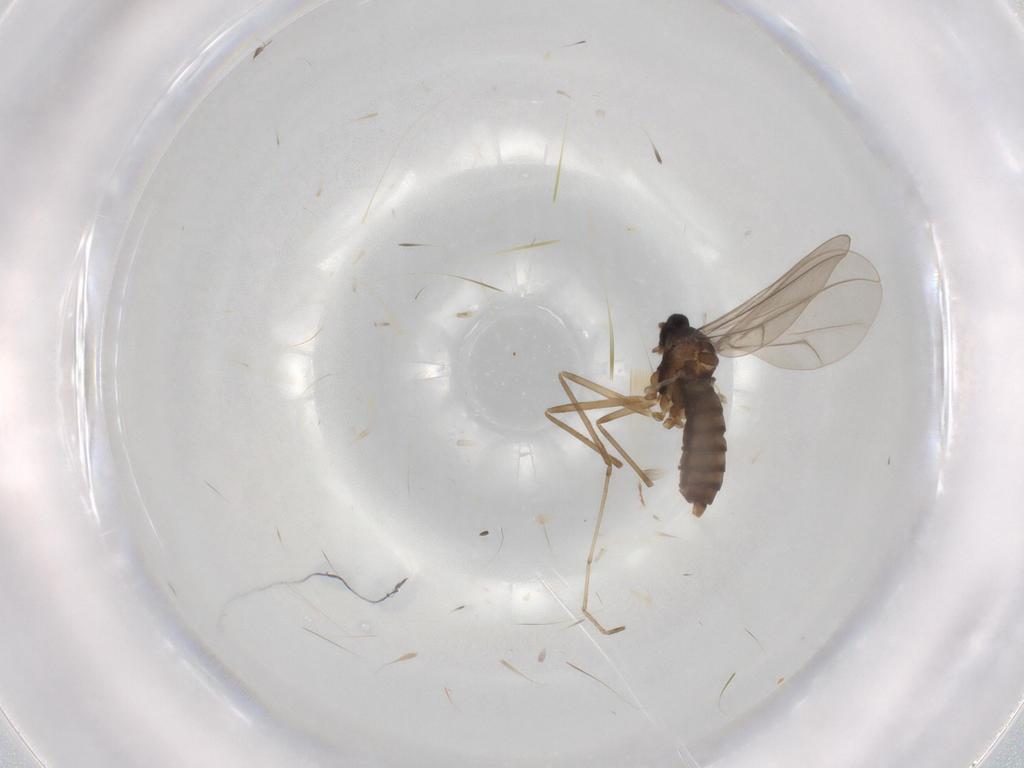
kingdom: Animalia
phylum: Arthropoda
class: Insecta
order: Diptera
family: Cecidomyiidae
